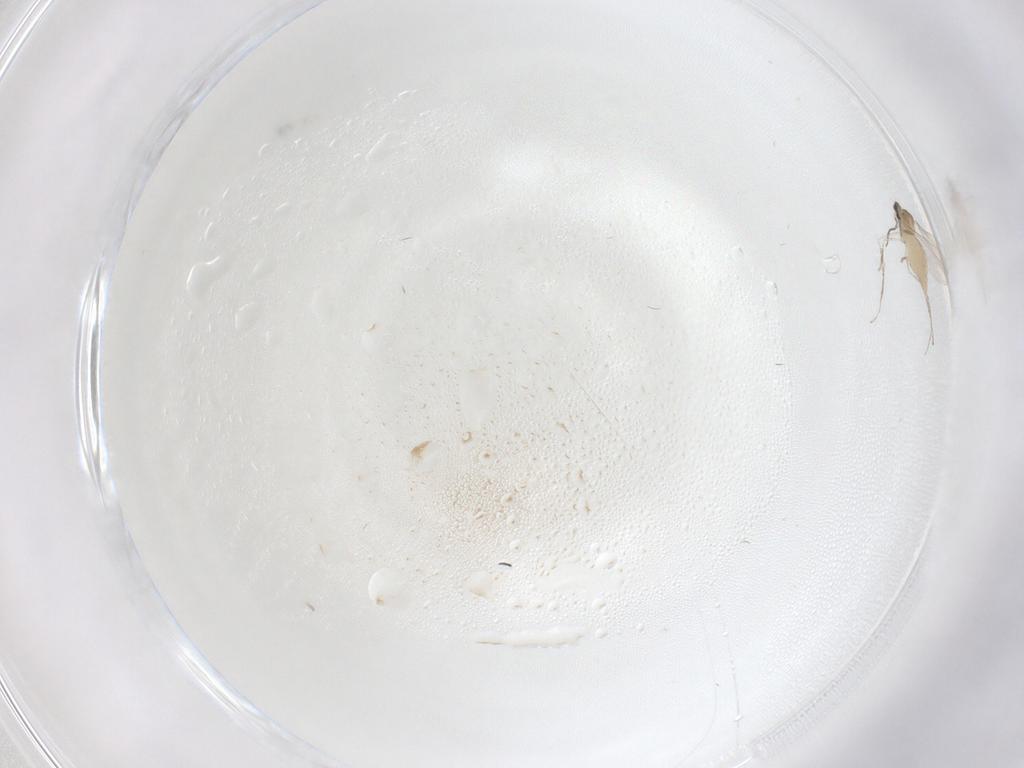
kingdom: Animalia
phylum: Arthropoda
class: Insecta
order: Diptera
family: Cecidomyiidae
